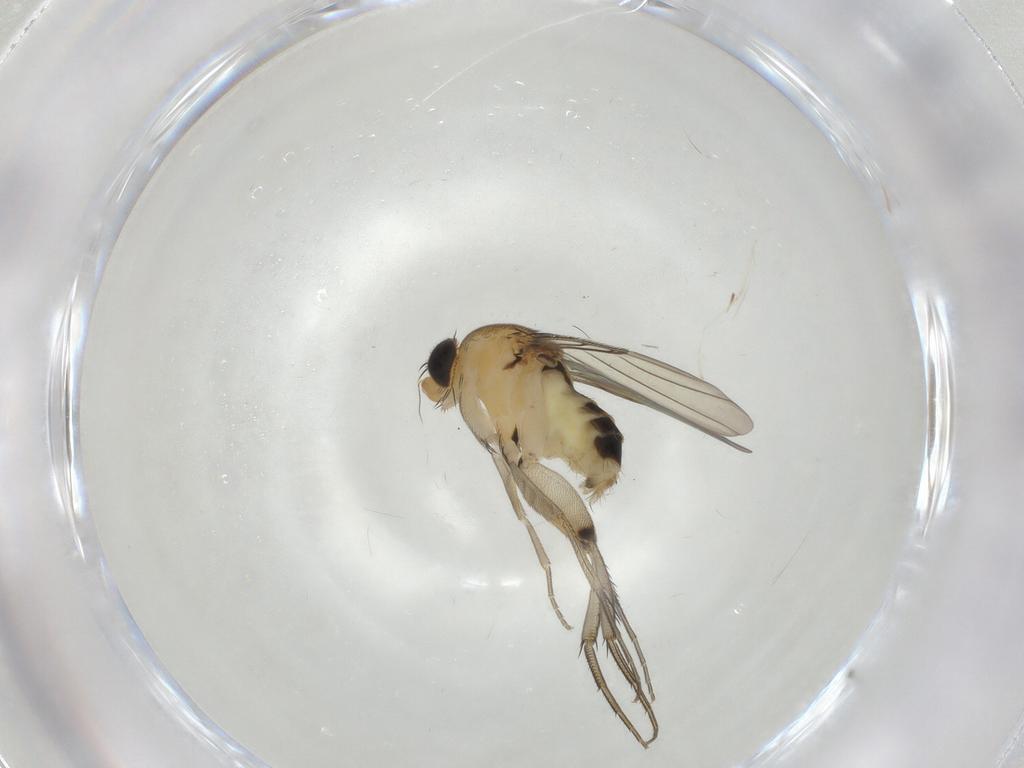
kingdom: Animalia
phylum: Arthropoda
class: Insecta
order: Diptera
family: Phoridae
